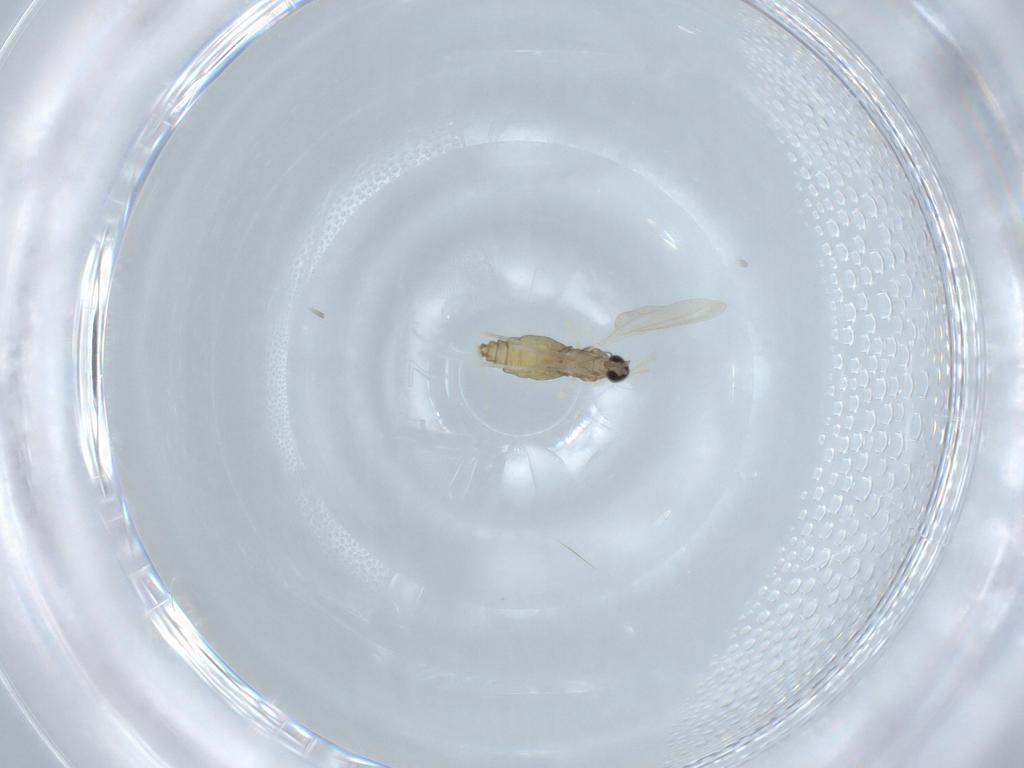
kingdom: Animalia
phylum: Arthropoda
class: Insecta
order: Diptera
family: Cecidomyiidae
